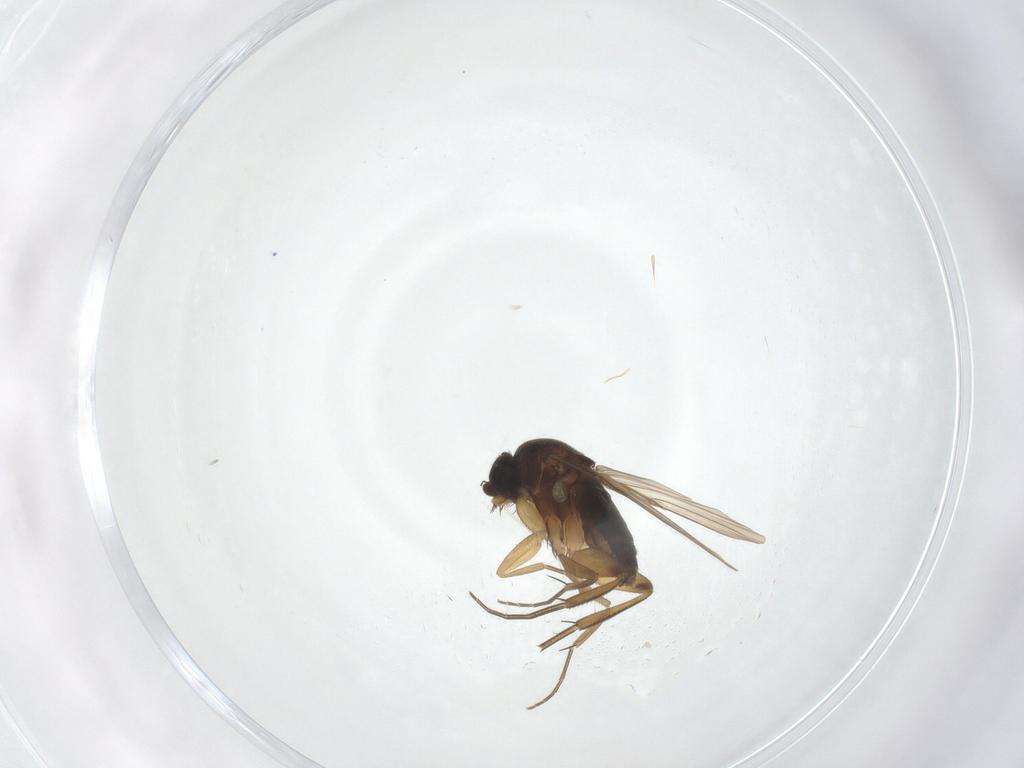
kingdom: Animalia
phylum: Arthropoda
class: Insecta
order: Diptera
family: Phoridae
